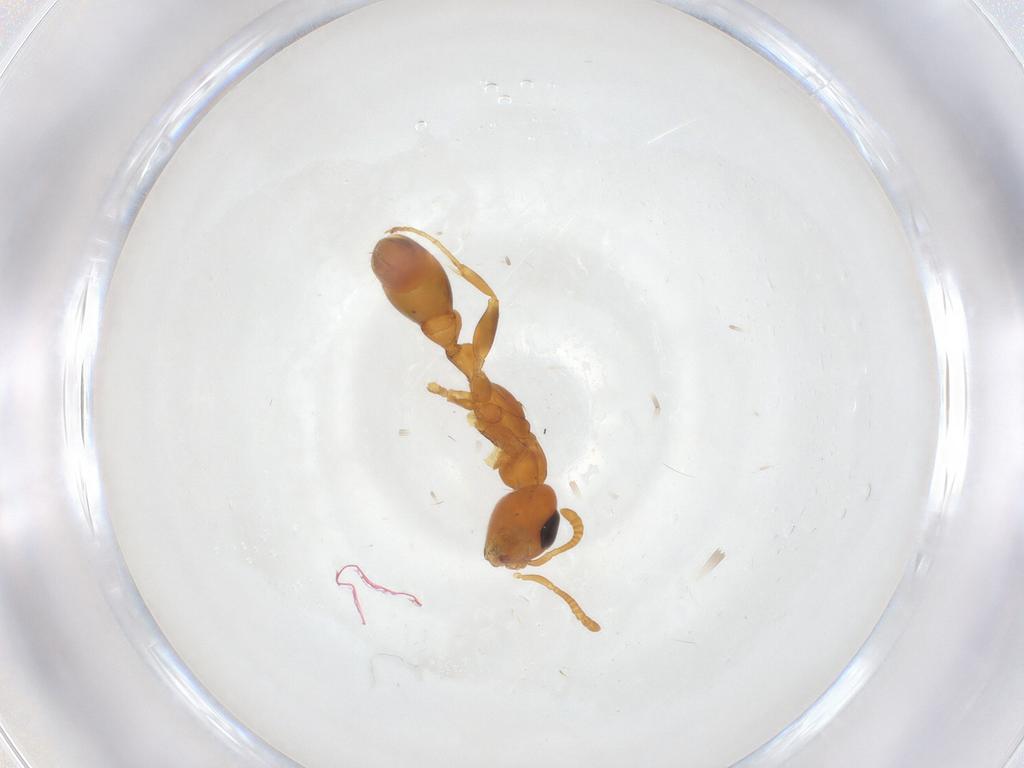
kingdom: Animalia
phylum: Arthropoda
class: Insecta
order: Hymenoptera
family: Formicidae
